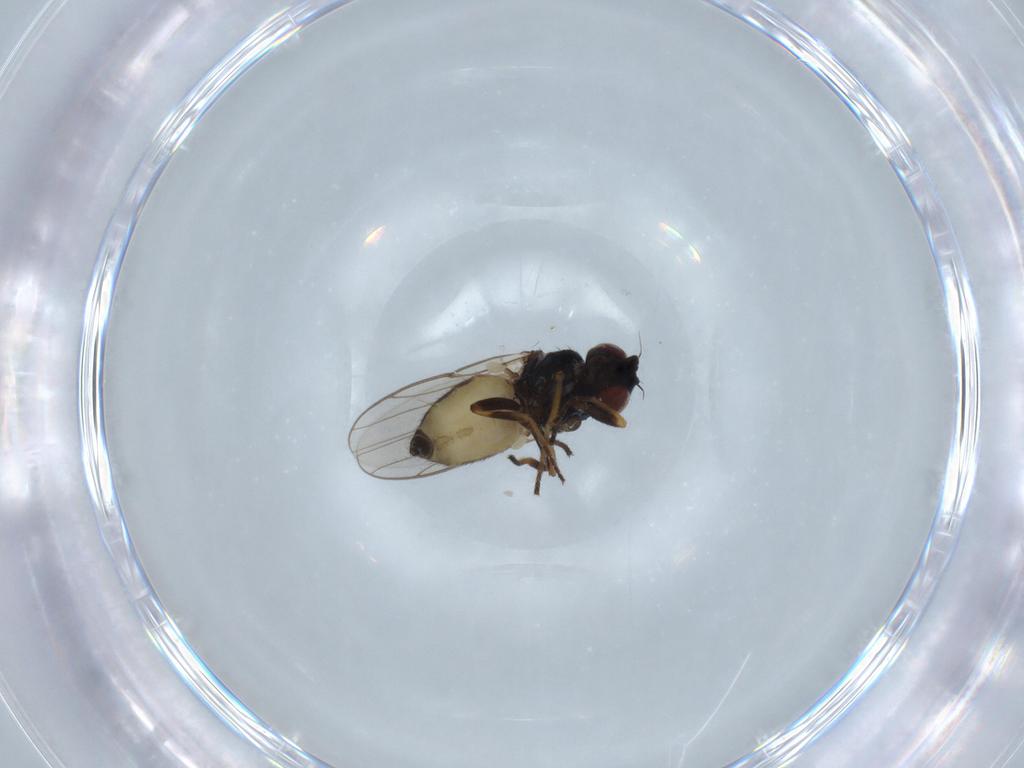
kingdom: Animalia
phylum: Arthropoda
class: Insecta
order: Diptera
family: Chloropidae
